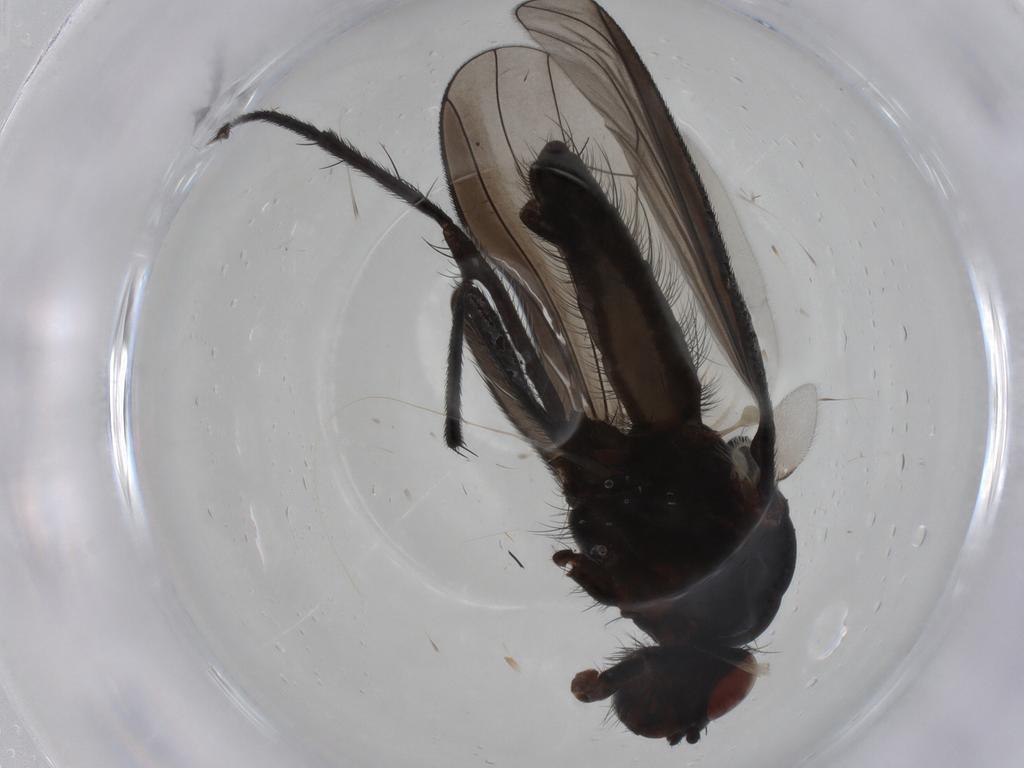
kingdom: Animalia
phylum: Arthropoda
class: Insecta
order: Diptera
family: Anthomyiidae
